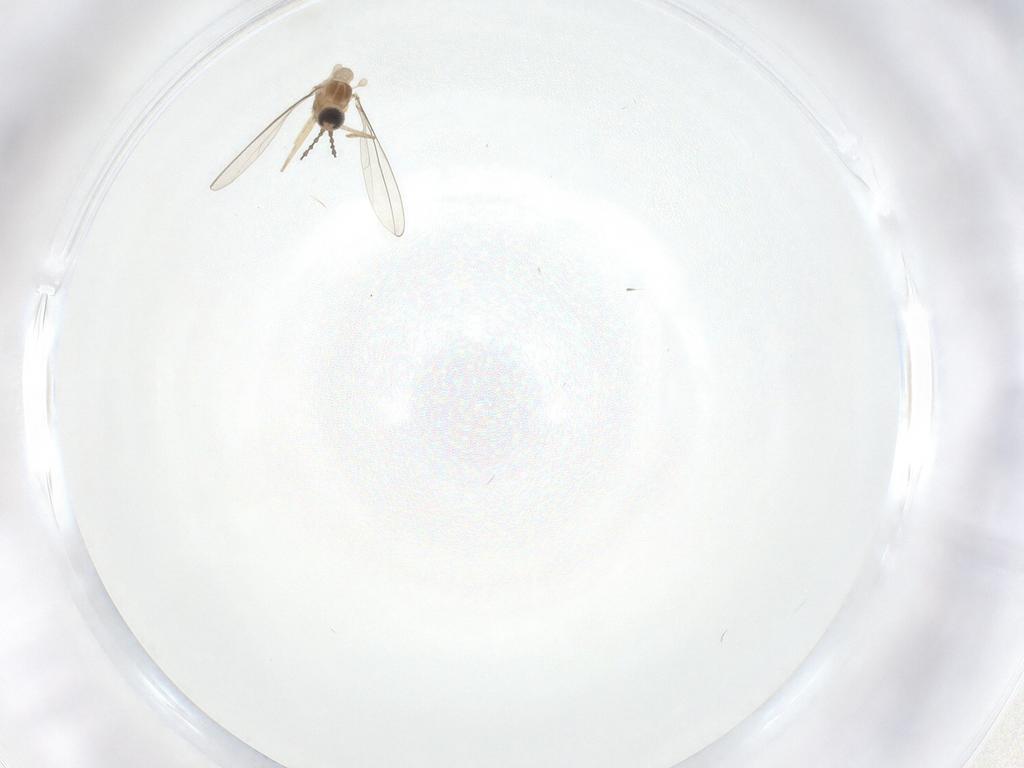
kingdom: Animalia
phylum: Arthropoda
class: Insecta
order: Diptera
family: Cecidomyiidae
